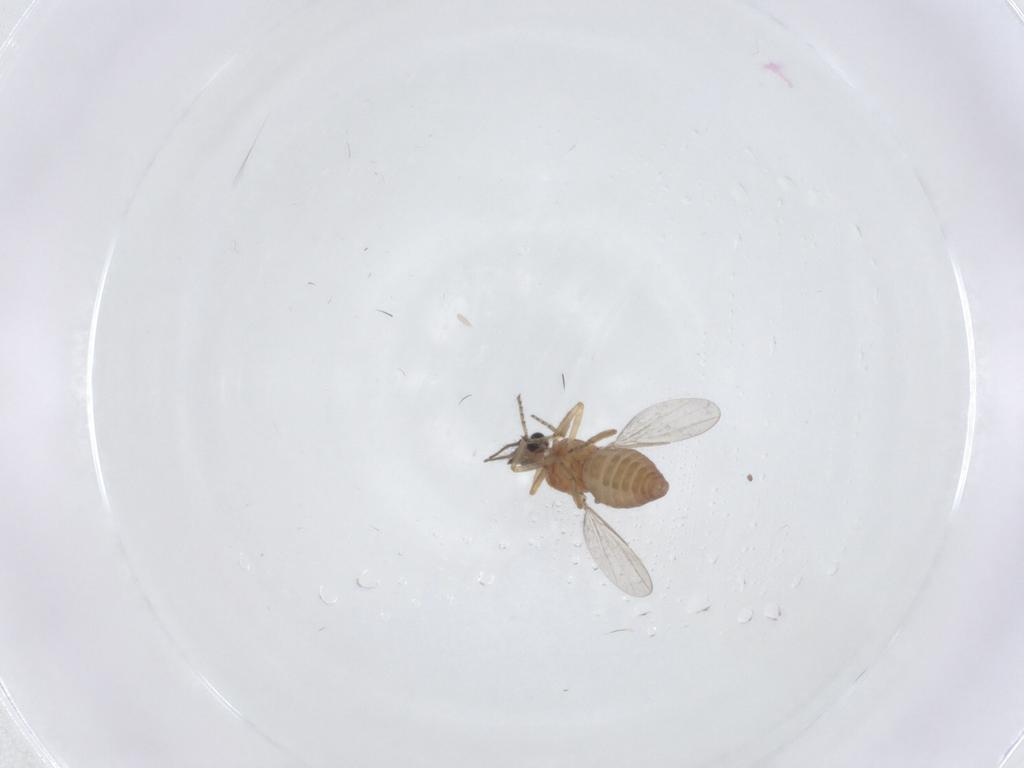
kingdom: Animalia
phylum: Arthropoda
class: Insecta
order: Diptera
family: Ceratopogonidae
